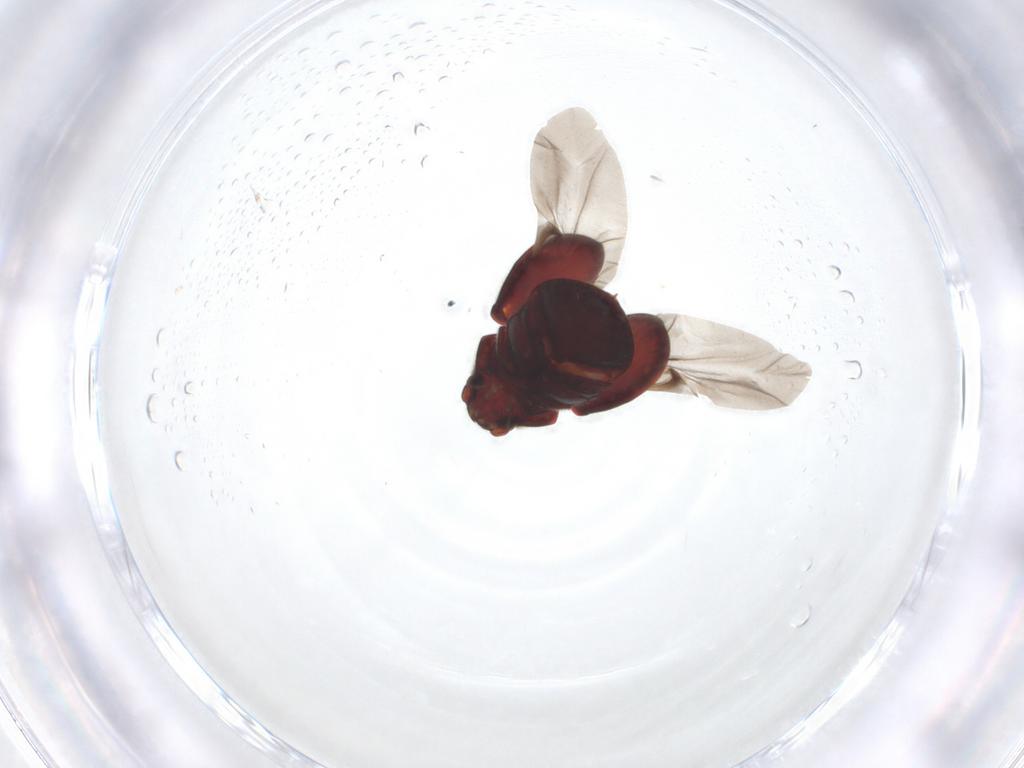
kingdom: Animalia
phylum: Arthropoda
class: Insecta
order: Coleoptera
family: Ptinidae
